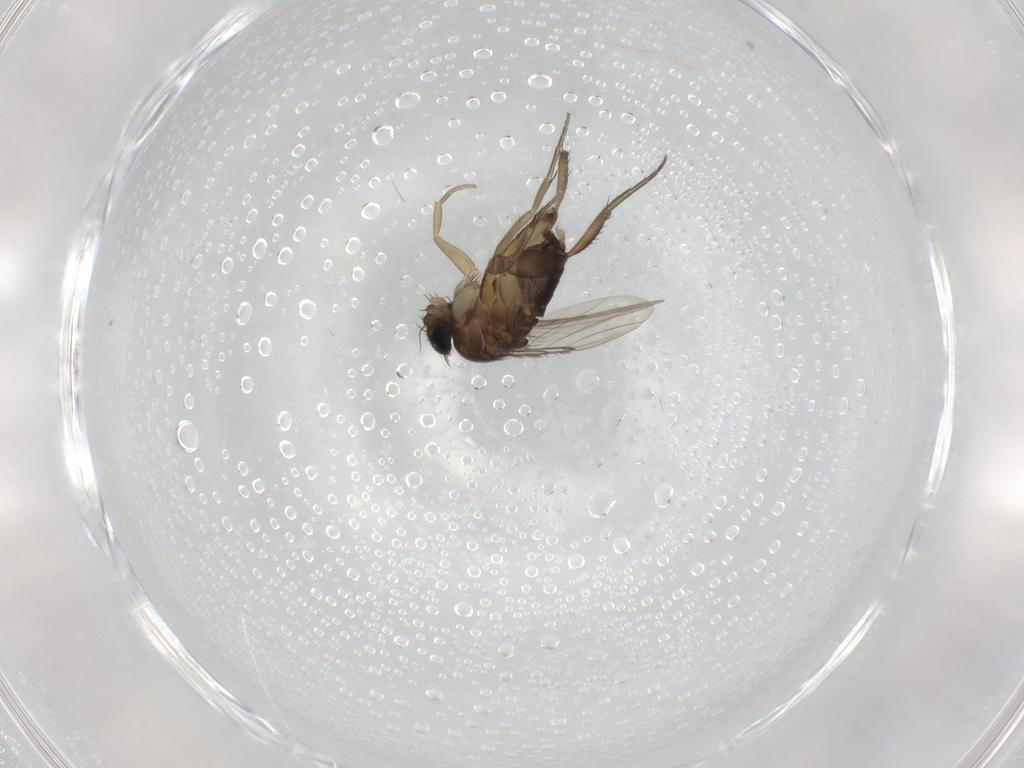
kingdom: Animalia
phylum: Arthropoda
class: Insecta
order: Diptera
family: Phoridae
